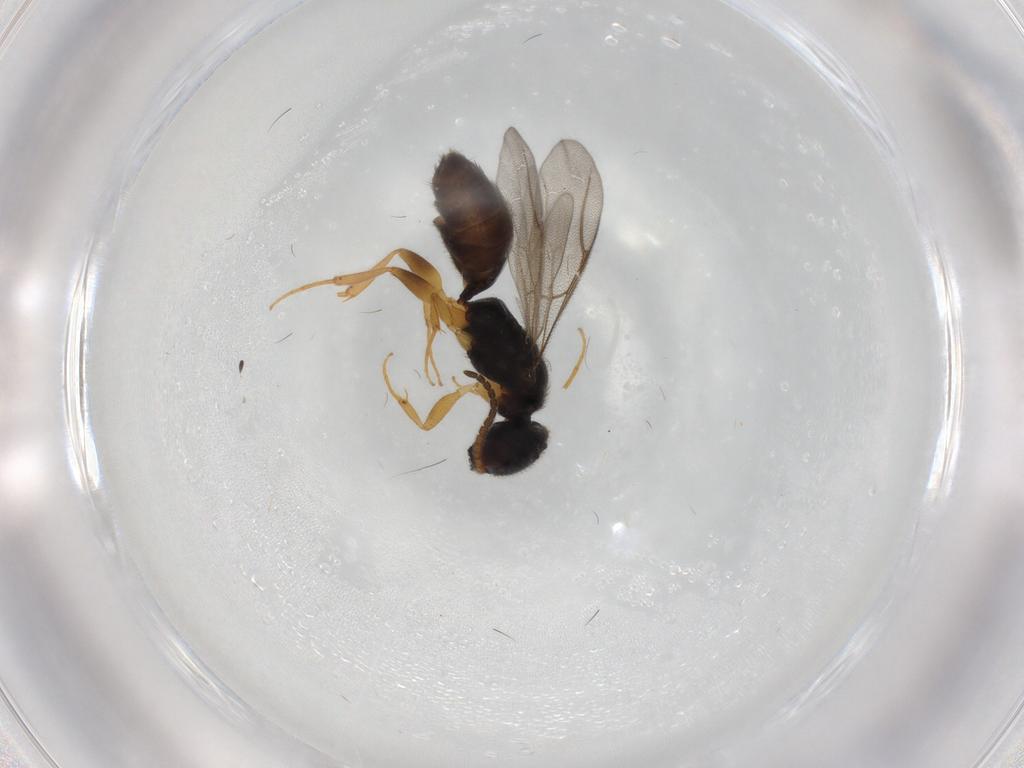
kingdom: Animalia
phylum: Arthropoda
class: Insecta
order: Hymenoptera
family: Bethylidae
